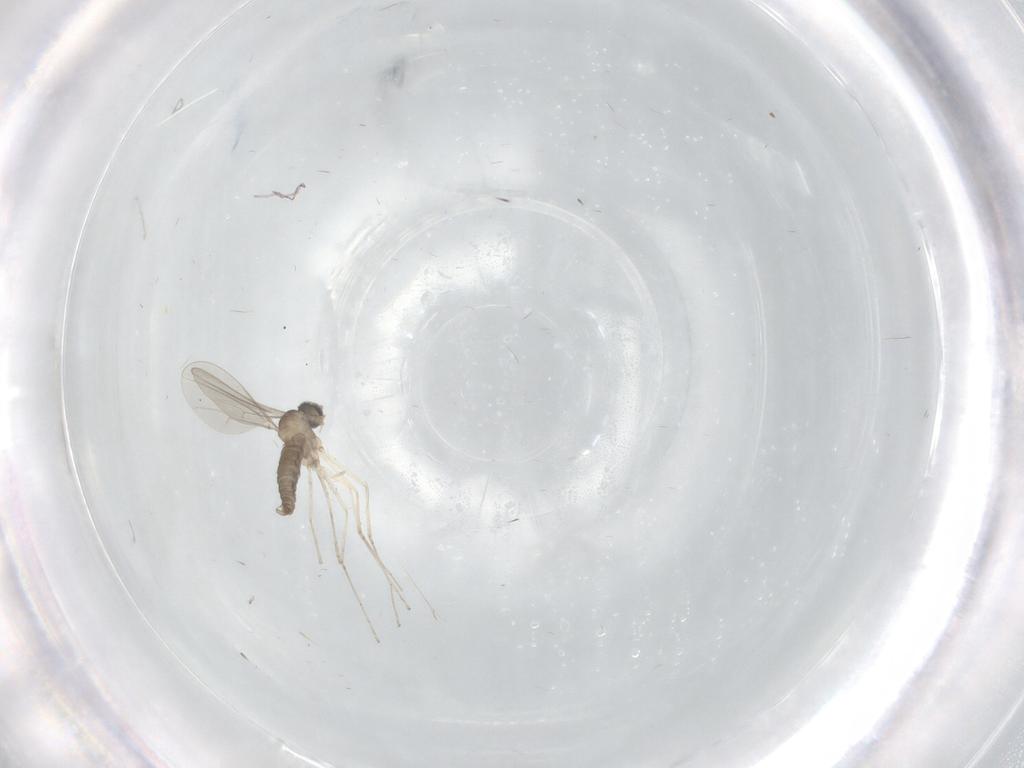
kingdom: Animalia
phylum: Arthropoda
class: Insecta
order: Diptera
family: Cecidomyiidae
